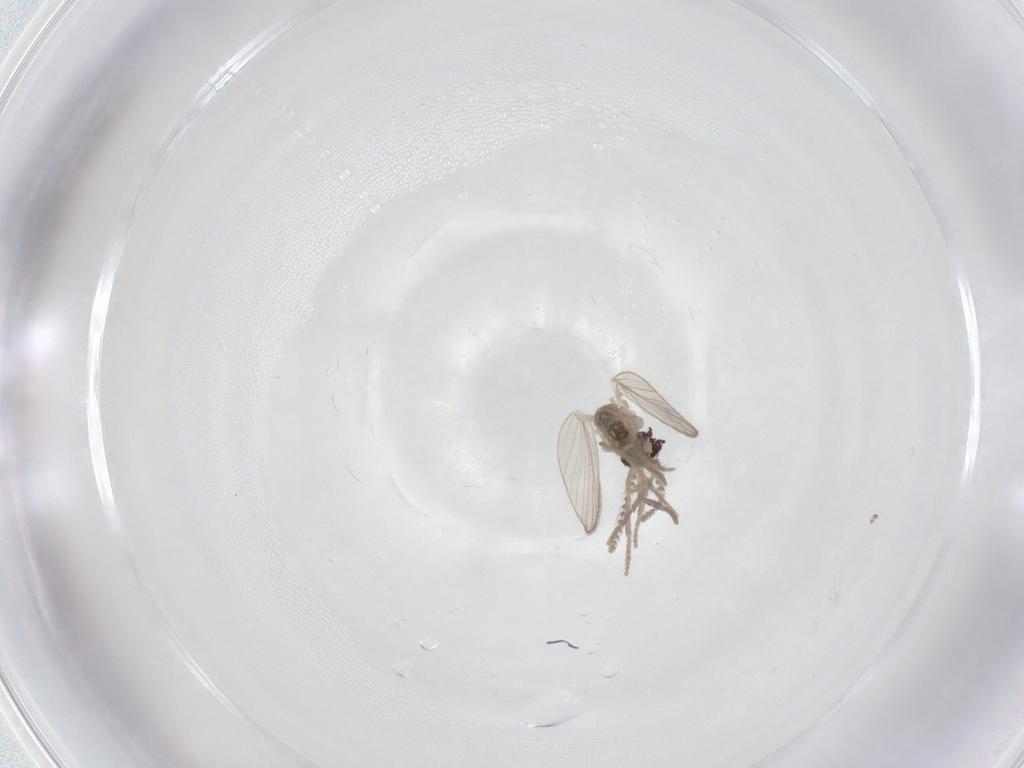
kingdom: Animalia
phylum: Arthropoda
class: Insecta
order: Diptera
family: Psychodidae
